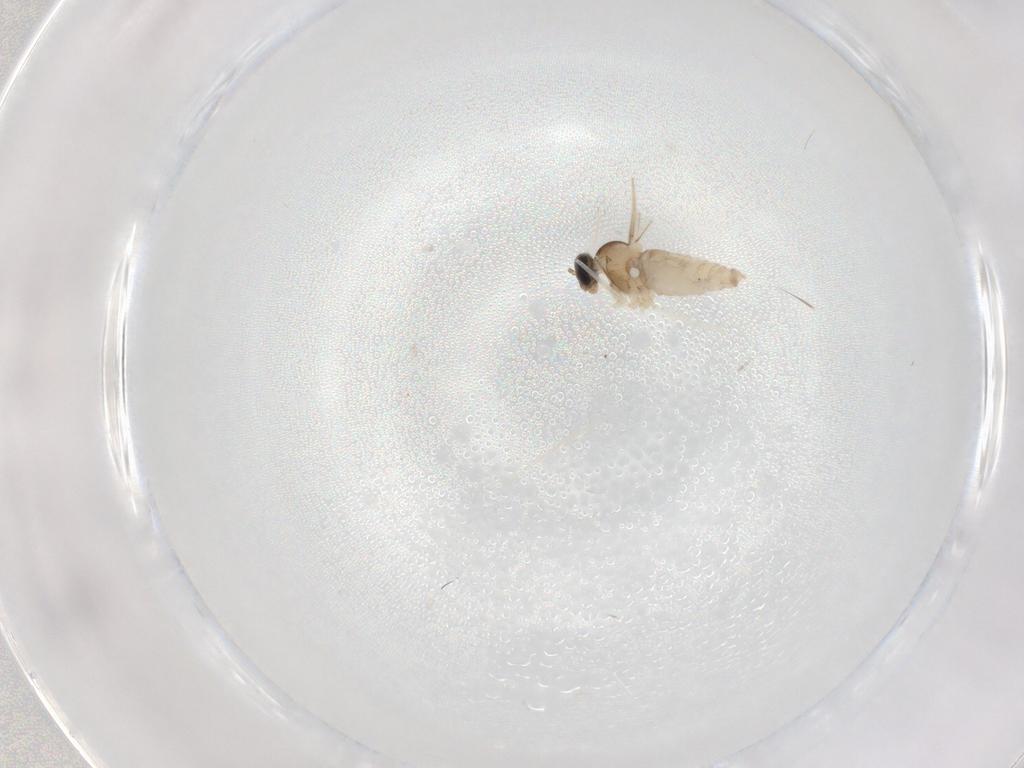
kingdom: Animalia
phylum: Arthropoda
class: Insecta
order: Diptera
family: Cecidomyiidae
